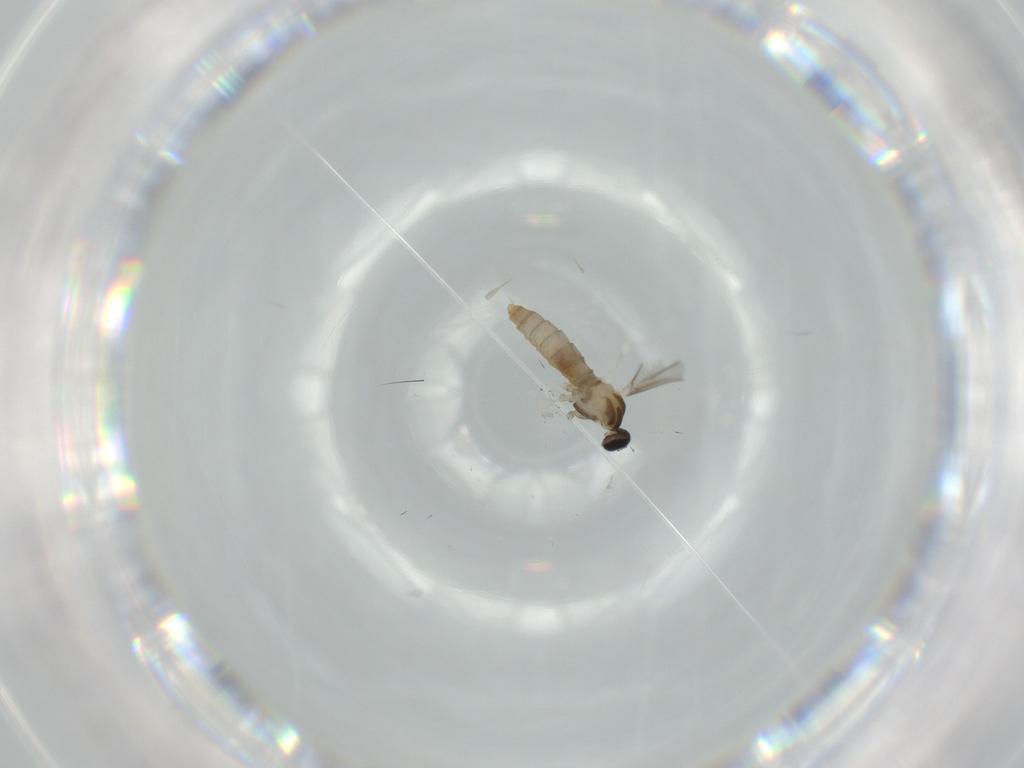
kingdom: Animalia
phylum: Arthropoda
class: Insecta
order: Diptera
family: Cecidomyiidae
